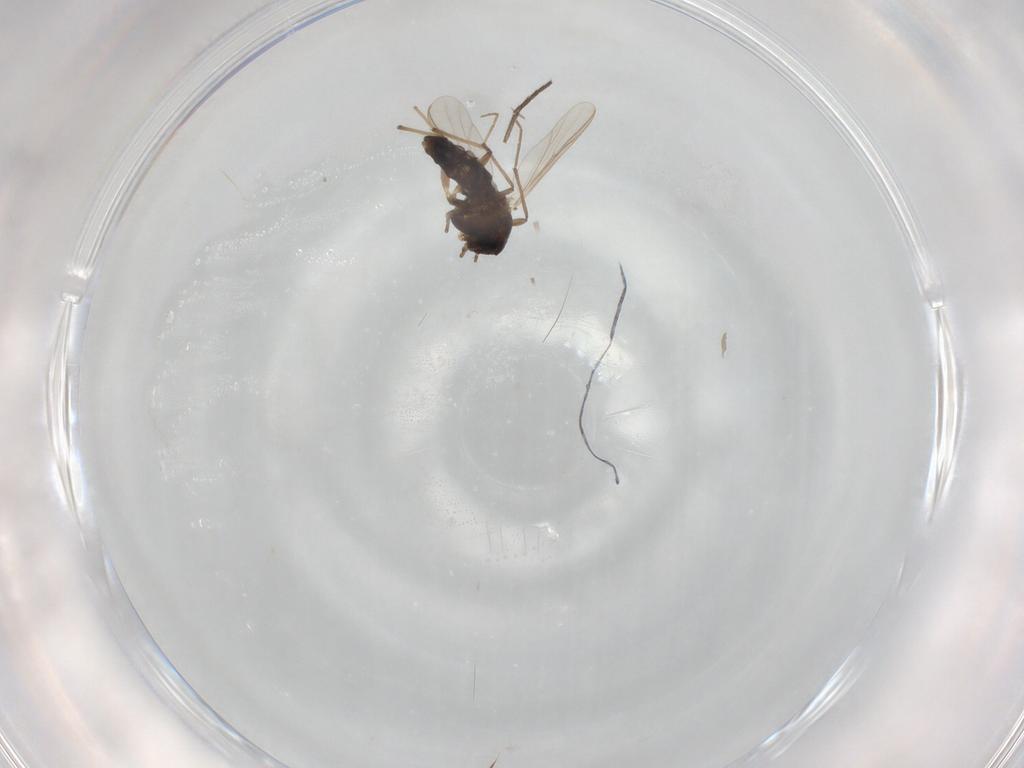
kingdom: Animalia
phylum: Arthropoda
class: Insecta
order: Diptera
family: Chironomidae
